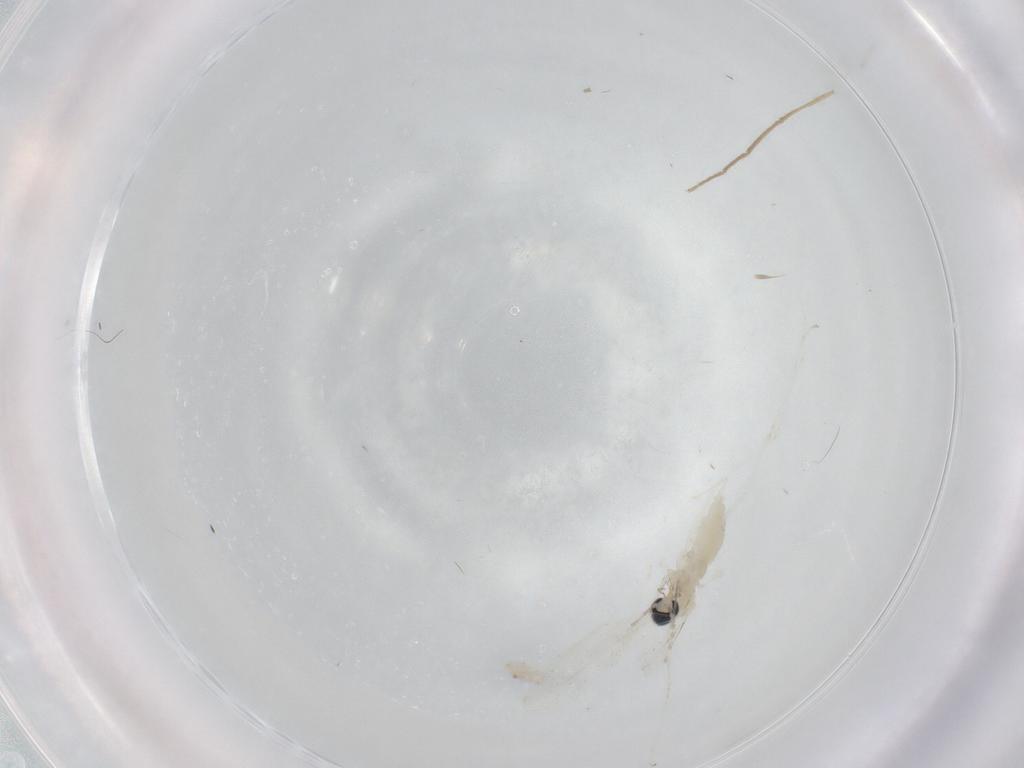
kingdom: Animalia
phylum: Arthropoda
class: Insecta
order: Diptera
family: Cecidomyiidae
